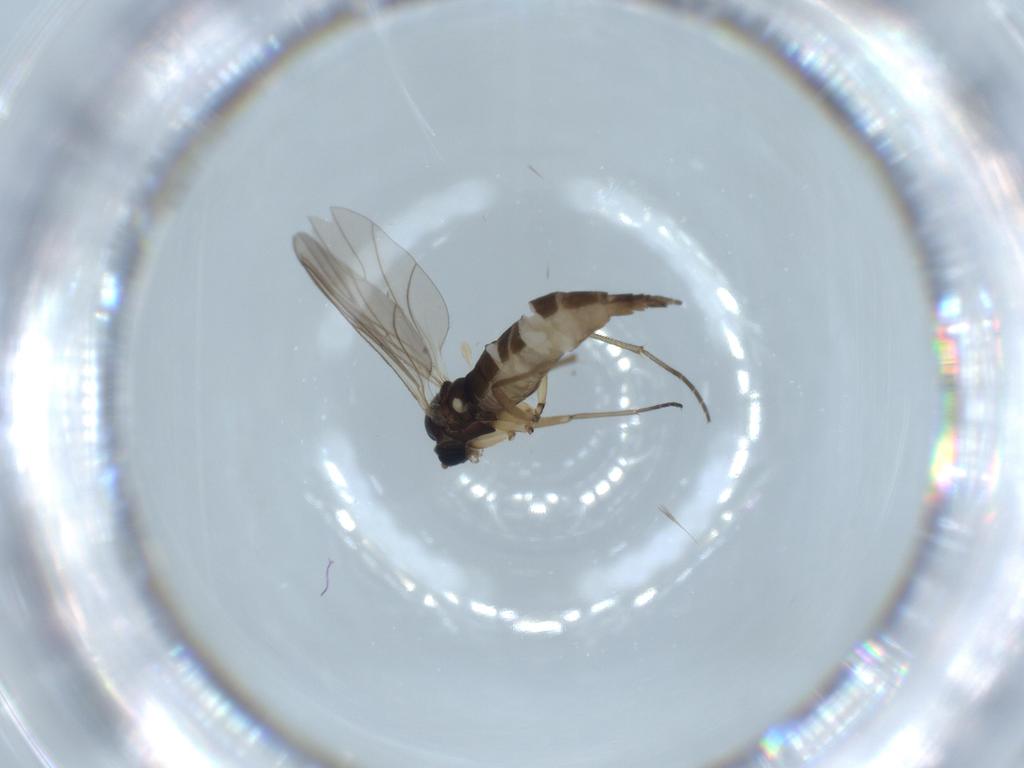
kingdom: Animalia
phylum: Arthropoda
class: Insecta
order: Diptera
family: Sciaridae
